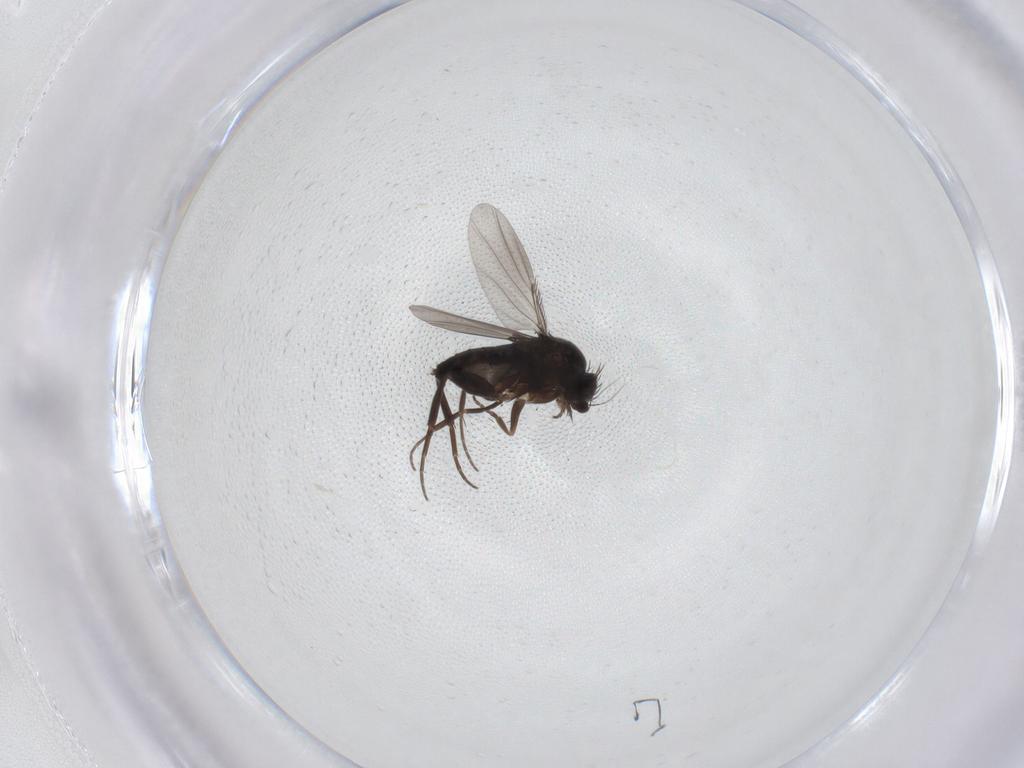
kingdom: Animalia
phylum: Arthropoda
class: Insecta
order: Diptera
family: Phoridae
